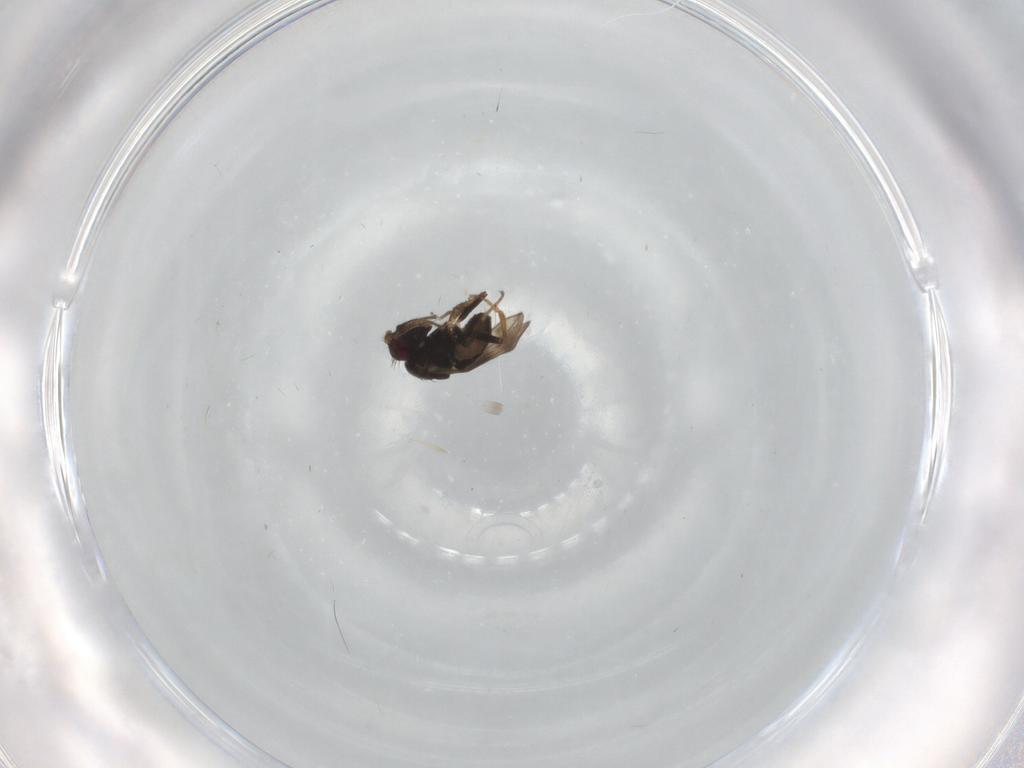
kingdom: Animalia
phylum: Arthropoda
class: Insecta
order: Diptera
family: Sphaeroceridae
